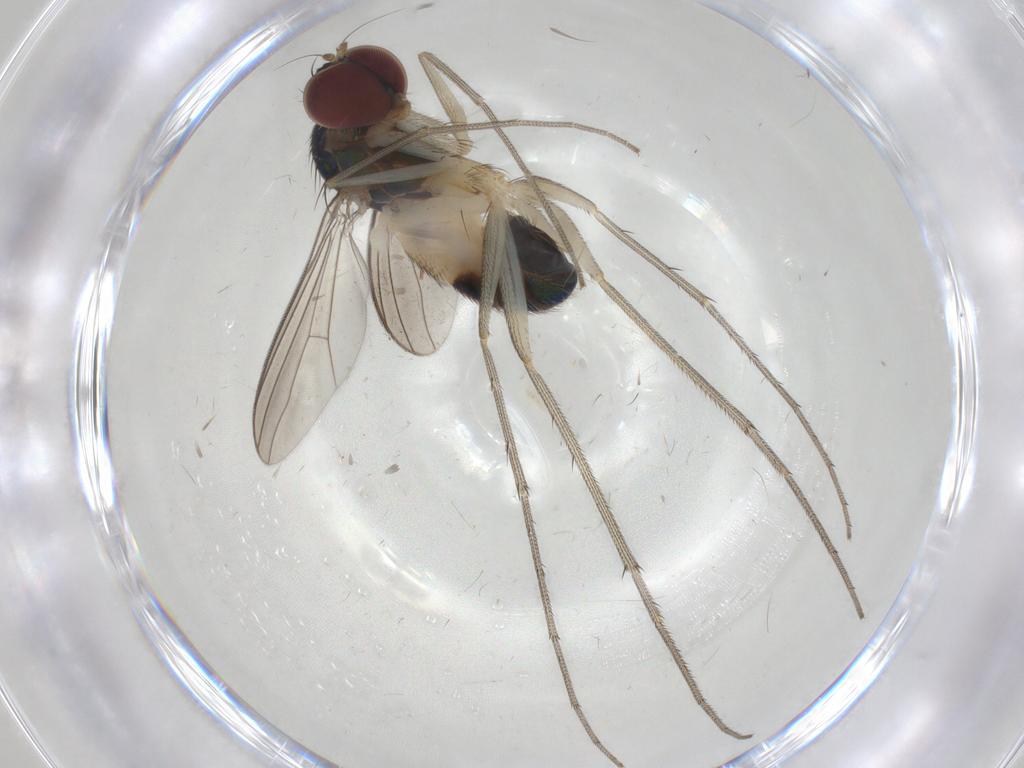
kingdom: Animalia
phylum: Arthropoda
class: Insecta
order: Diptera
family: Dolichopodidae
